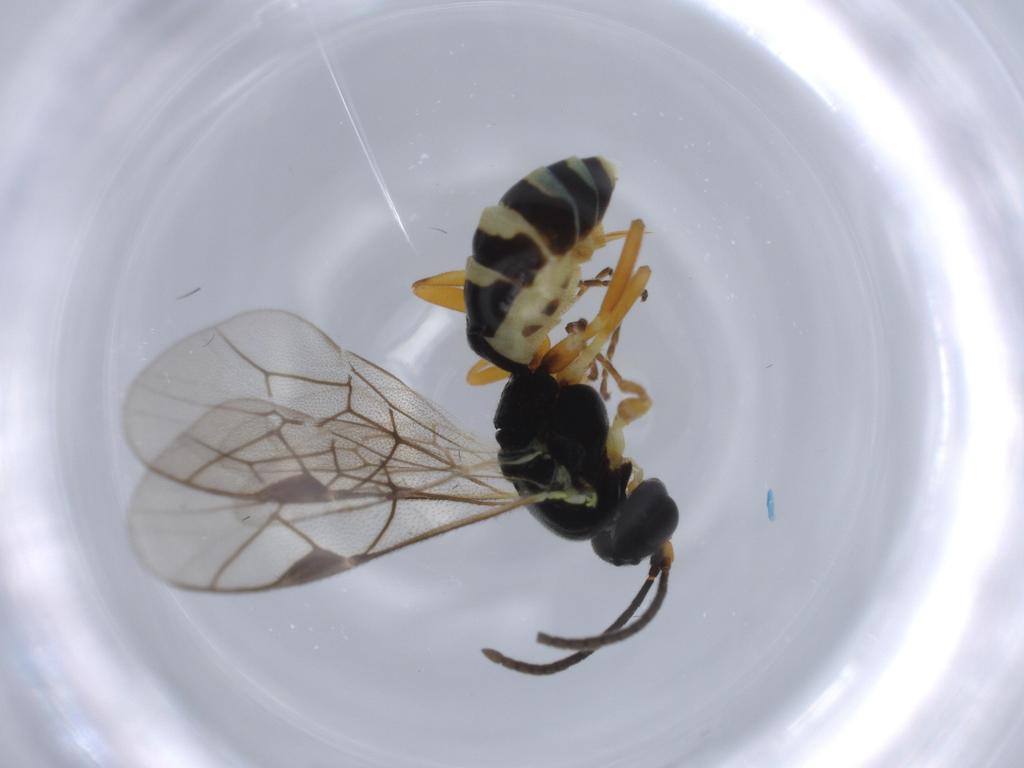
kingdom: Animalia
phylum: Arthropoda
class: Insecta
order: Hymenoptera
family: Ichneumonidae
